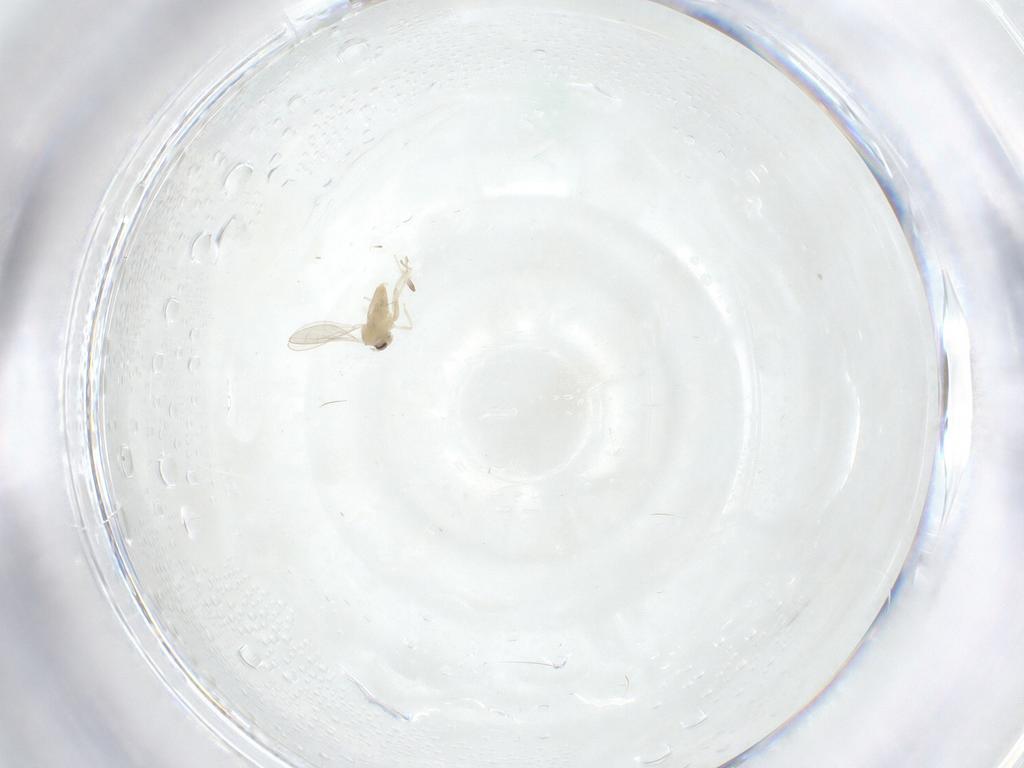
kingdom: Animalia
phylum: Arthropoda
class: Insecta
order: Diptera
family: Cecidomyiidae
